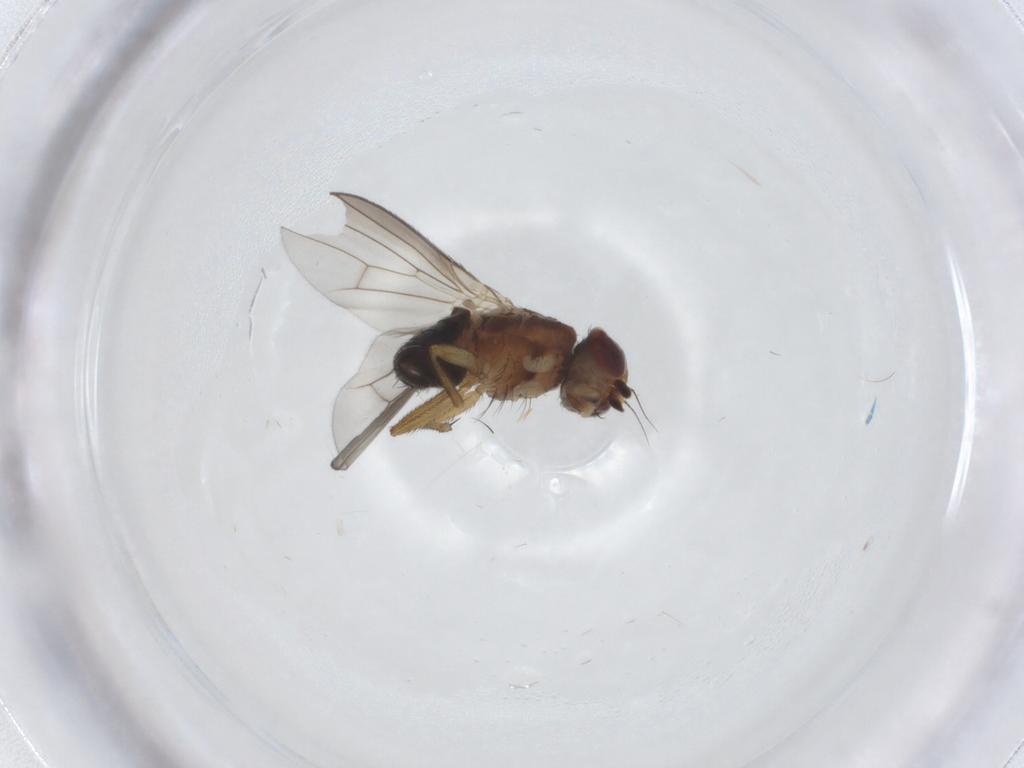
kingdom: Animalia
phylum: Arthropoda
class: Insecta
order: Diptera
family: Heleomyzidae
